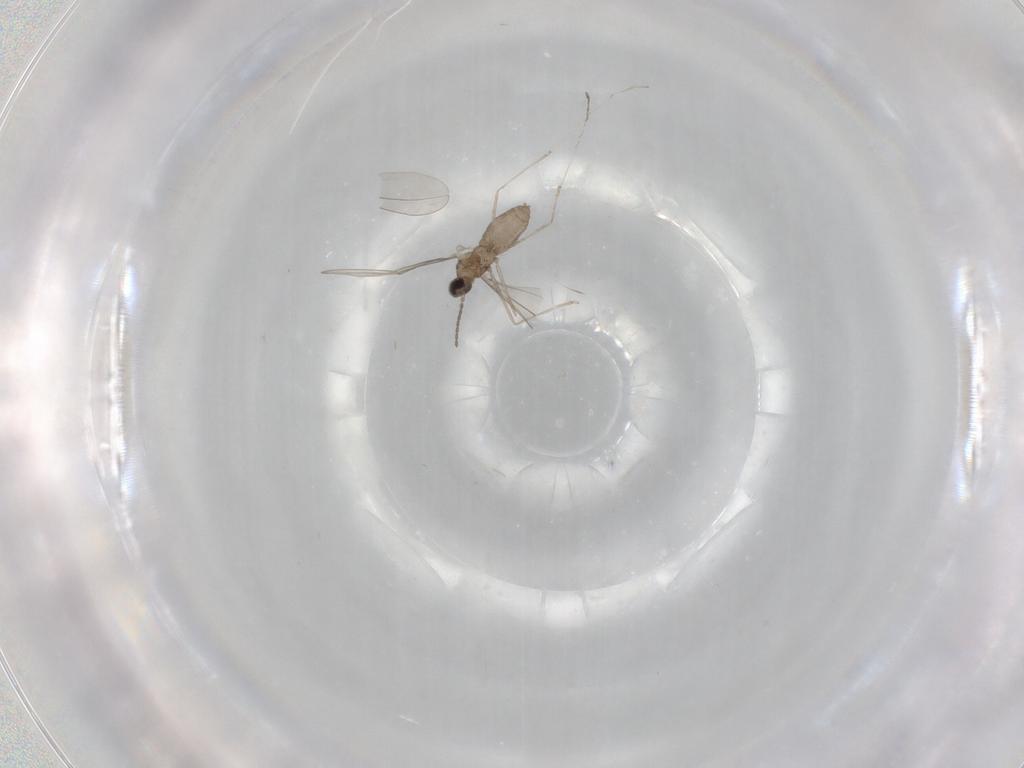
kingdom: Animalia
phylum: Arthropoda
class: Insecta
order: Diptera
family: Cecidomyiidae
